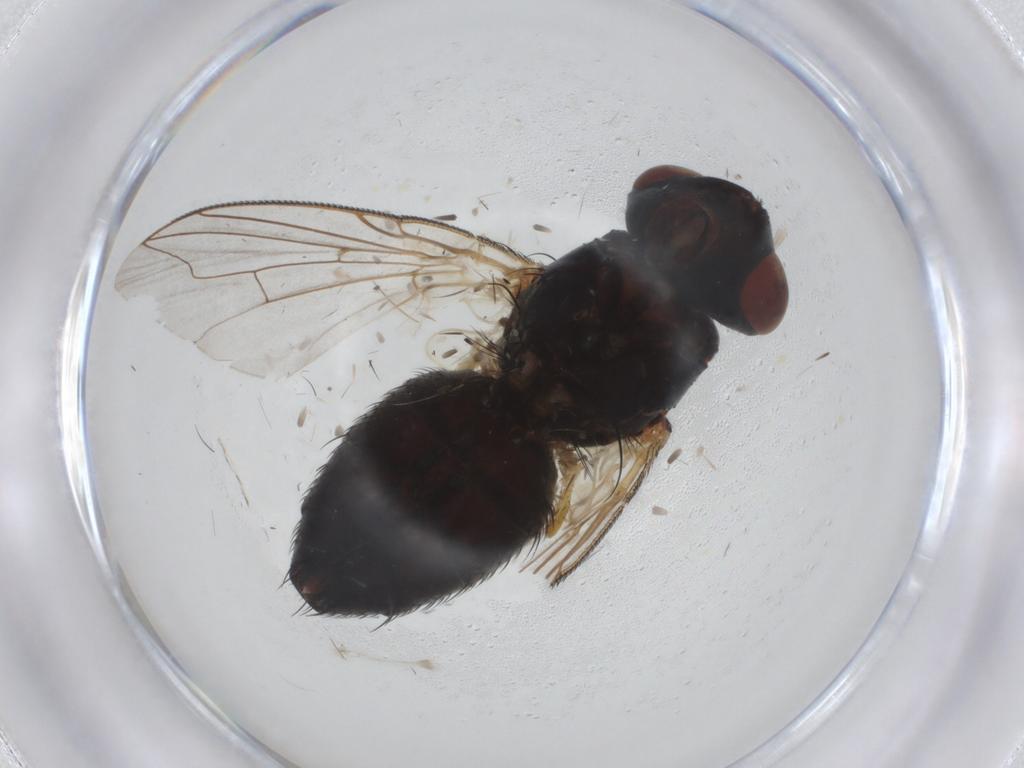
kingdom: Animalia
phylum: Arthropoda
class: Insecta
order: Diptera
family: Sarcophagidae
